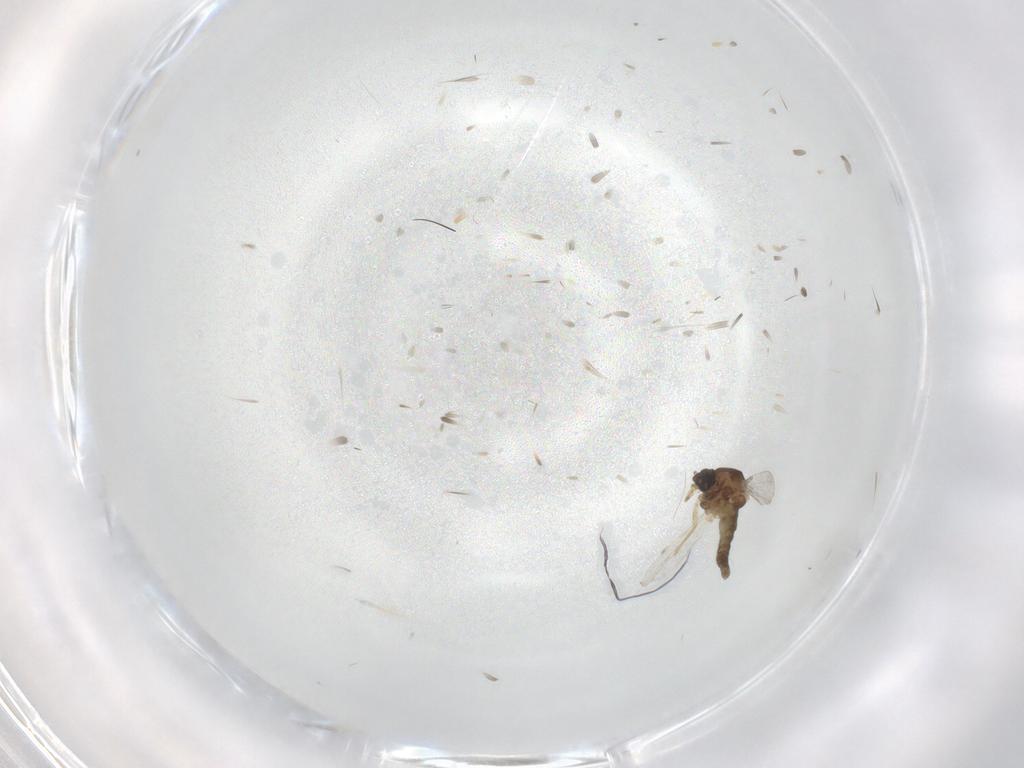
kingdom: Animalia
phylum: Arthropoda
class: Insecta
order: Diptera
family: Ceratopogonidae
